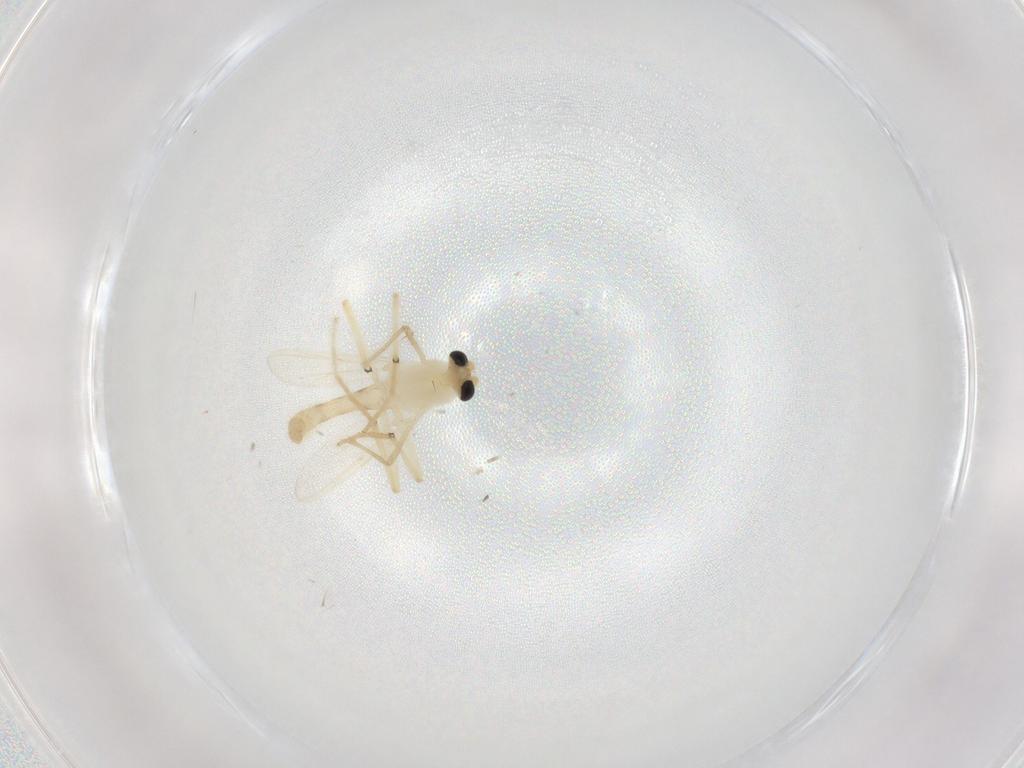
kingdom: Animalia
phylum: Arthropoda
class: Insecta
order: Diptera
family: Chironomidae
